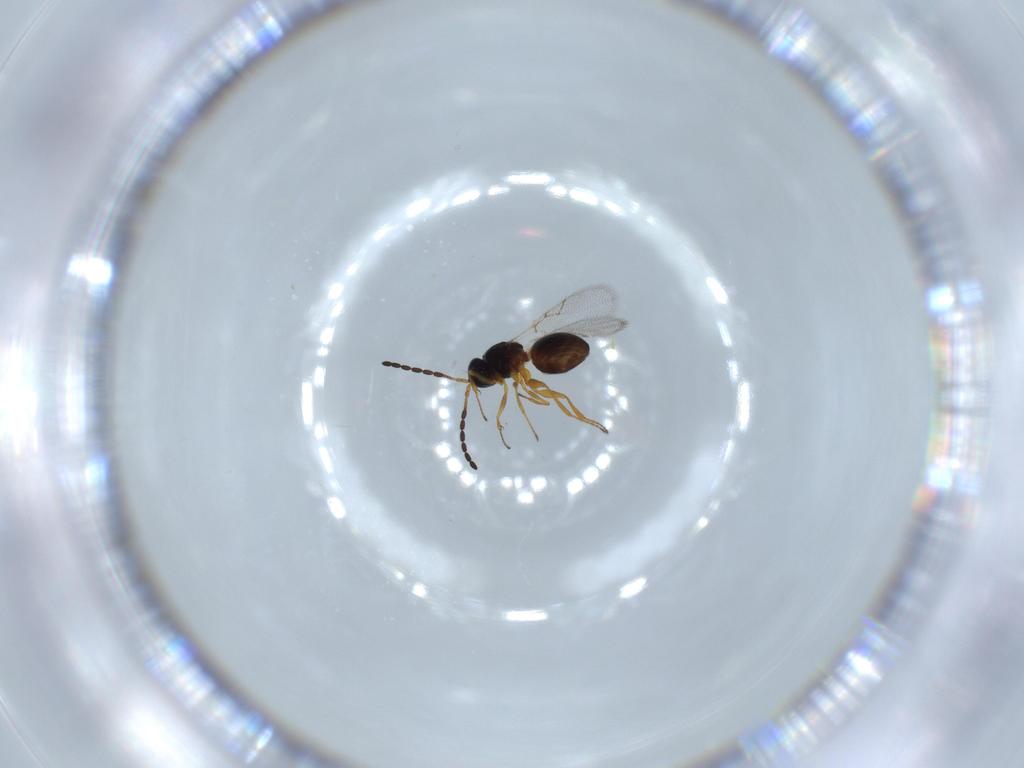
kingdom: Animalia
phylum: Arthropoda
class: Insecta
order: Hymenoptera
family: Figitidae
